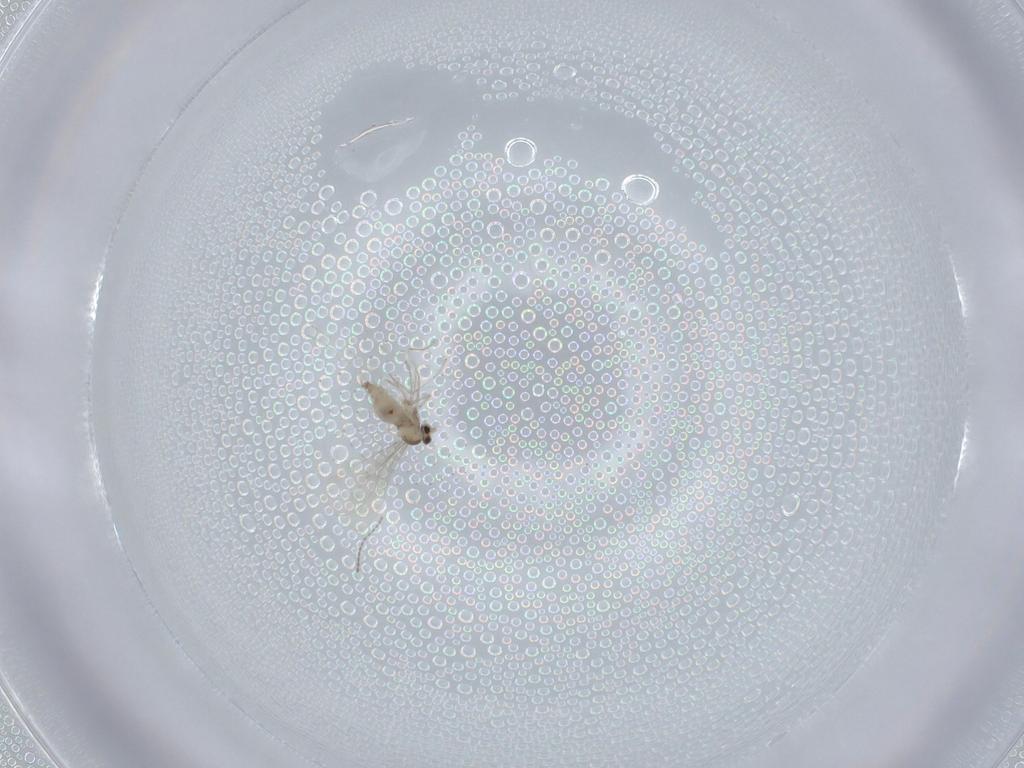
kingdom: Animalia
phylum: Arthropoda
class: Insecta
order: Diptera
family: Cecidomyiidae
